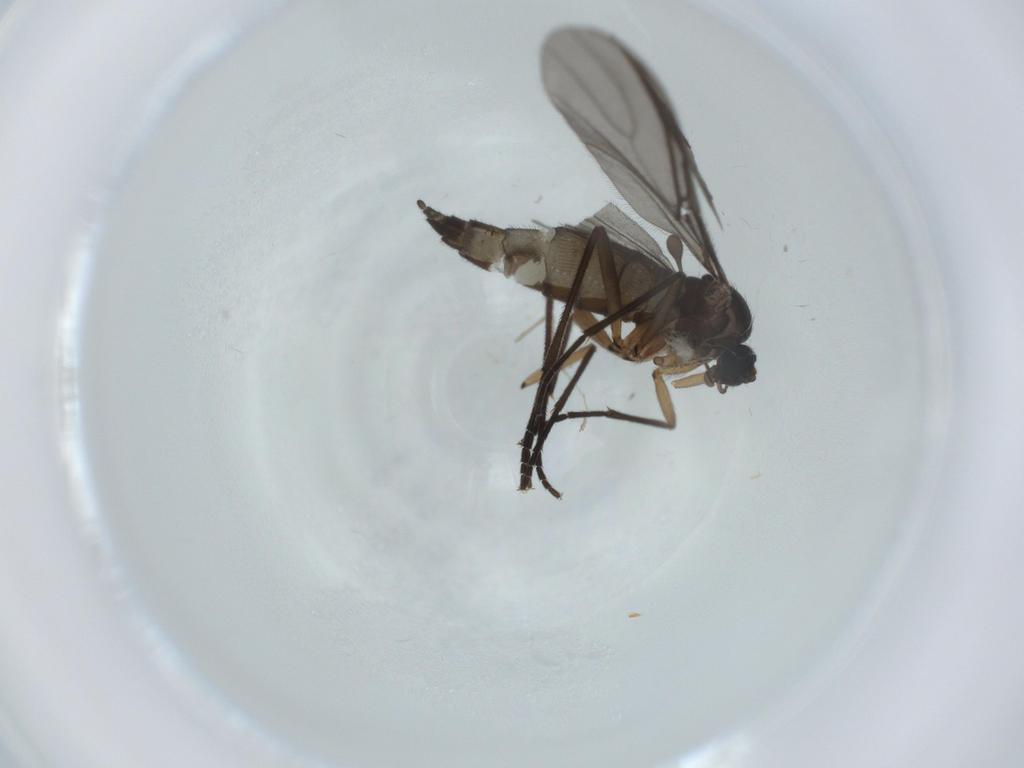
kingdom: Animalia
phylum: Arthropoda
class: Insecta
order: Diptera
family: Sciaridae
